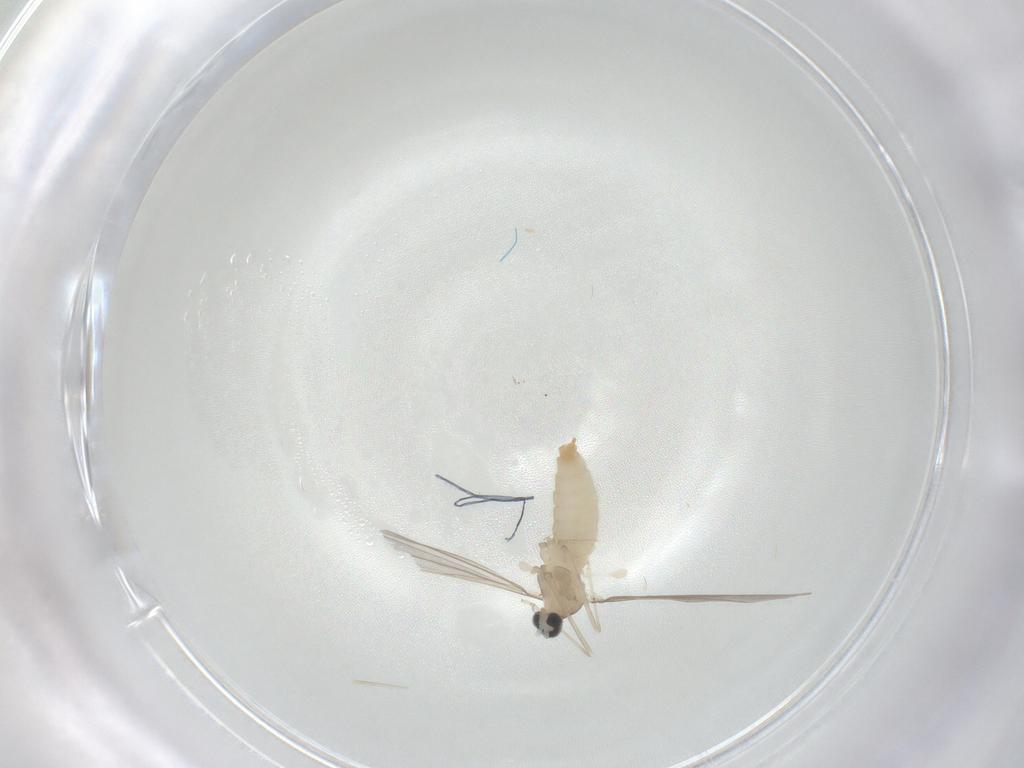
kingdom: Animalia
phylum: Arthropoda
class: Insecta
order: Diptera
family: Cecidomyiidae
